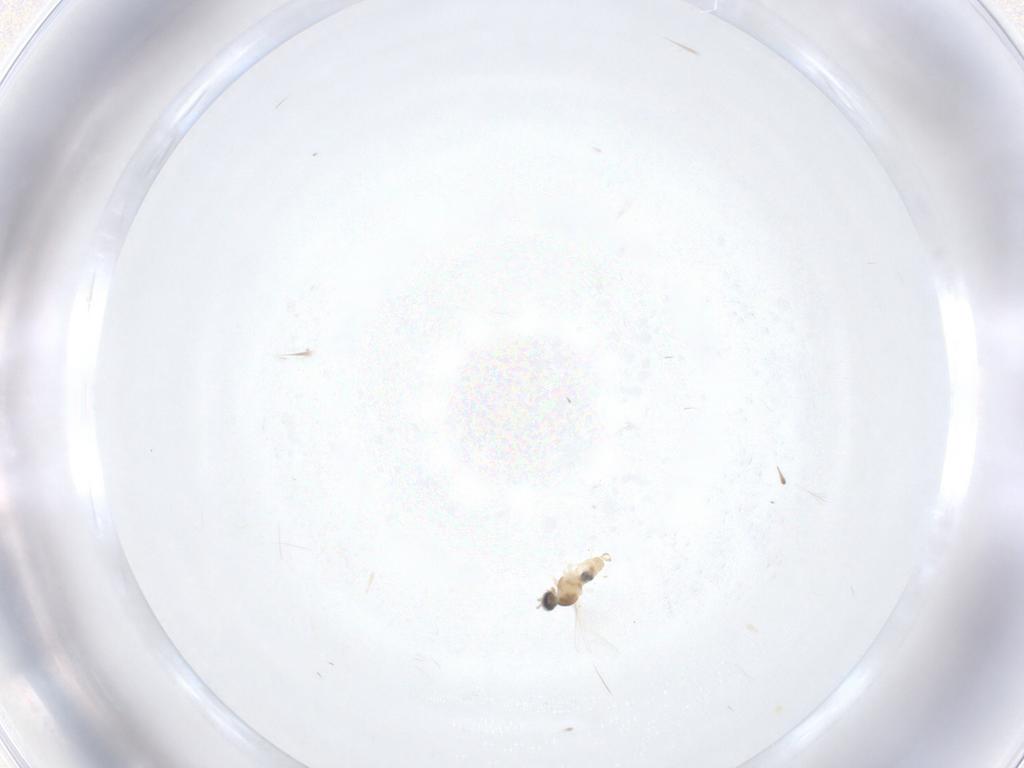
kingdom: Animalia
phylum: Arthropoda
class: Insecta
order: Diptera
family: Cecidomyiidae
